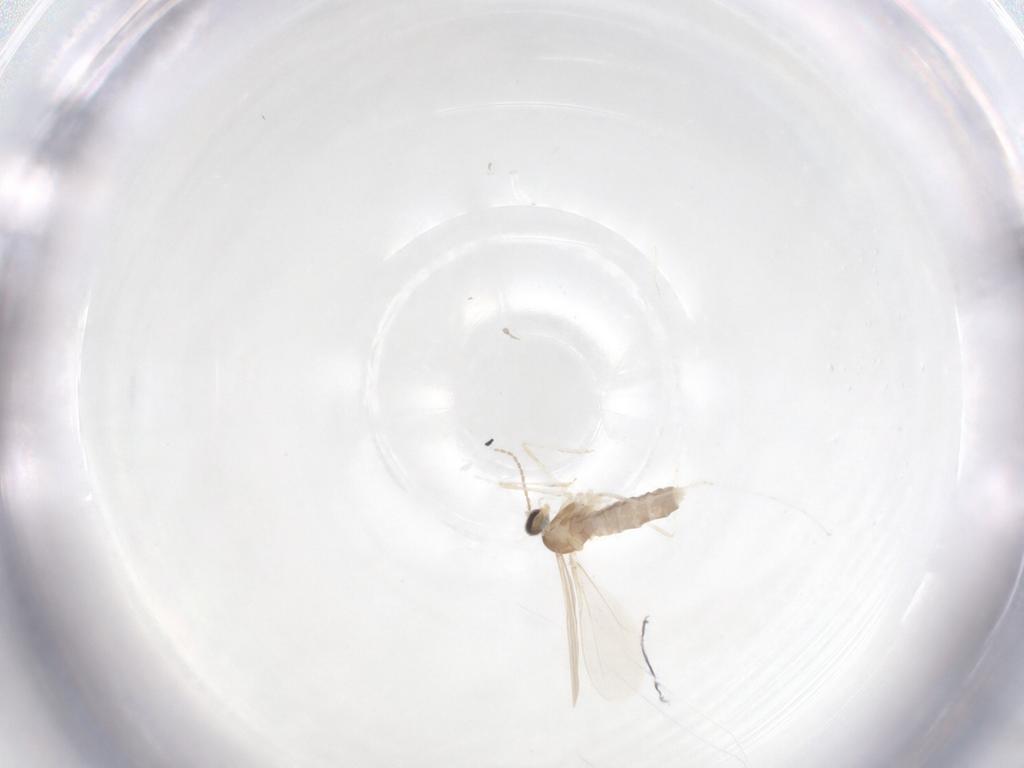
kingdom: Animalia
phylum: Arthropoda
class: Insecta
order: Diptera
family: Cecidomyiidae
